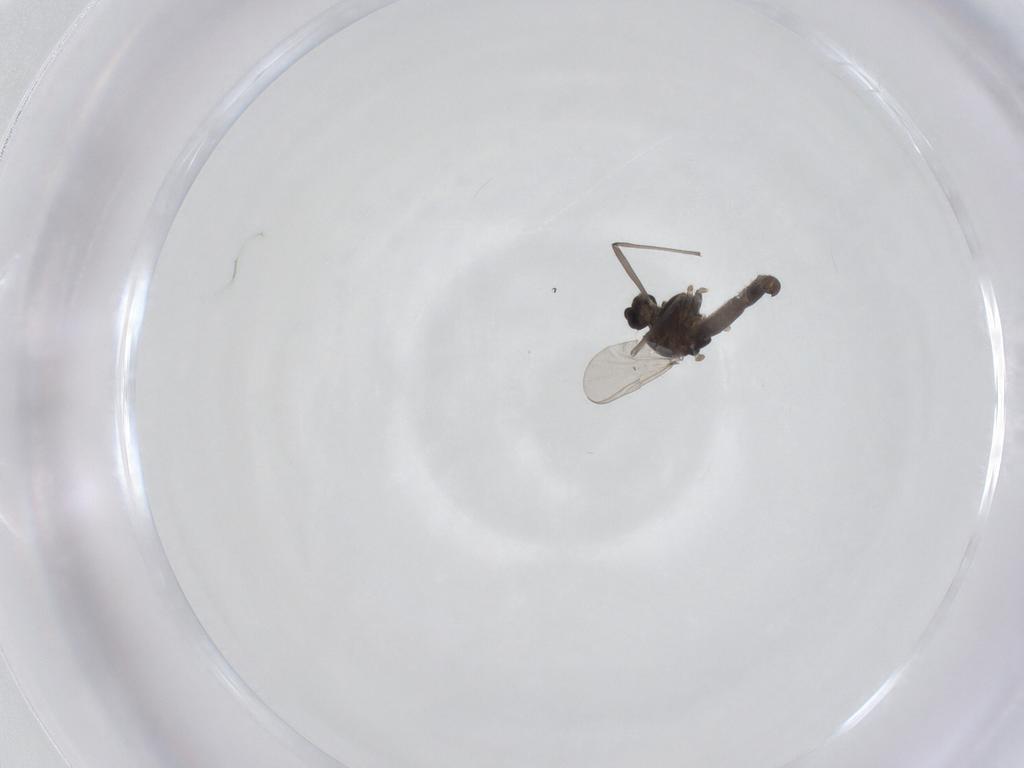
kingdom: Animalia
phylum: Arthropoda
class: Insecta
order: Diptera
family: Chironomidae
